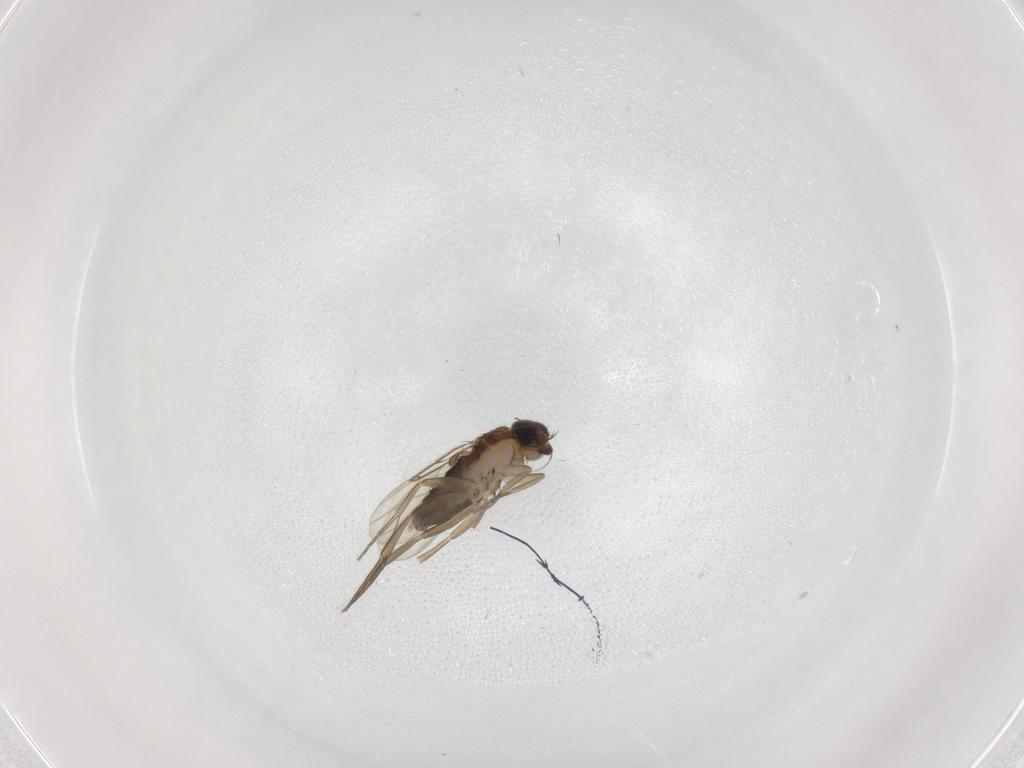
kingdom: Animalia
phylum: Arthropoda
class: Insecta
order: Diptera
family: Phoridae
